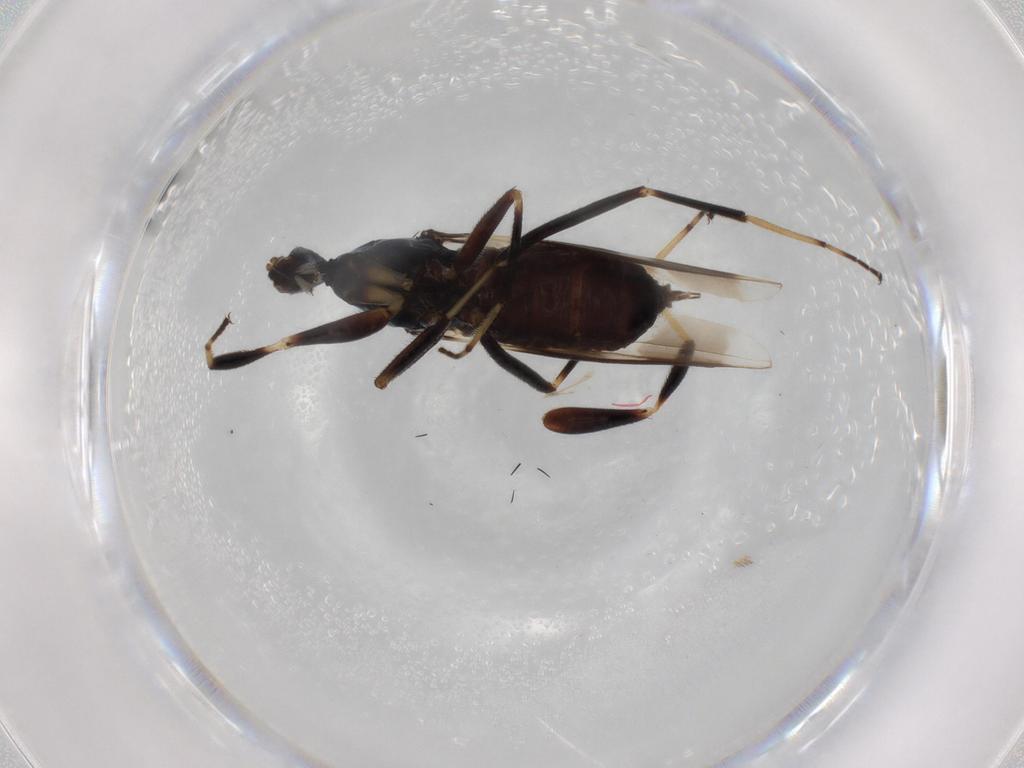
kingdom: Animalia
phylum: Arthropoda
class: Insecta
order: Diptera
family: Hybotidae
